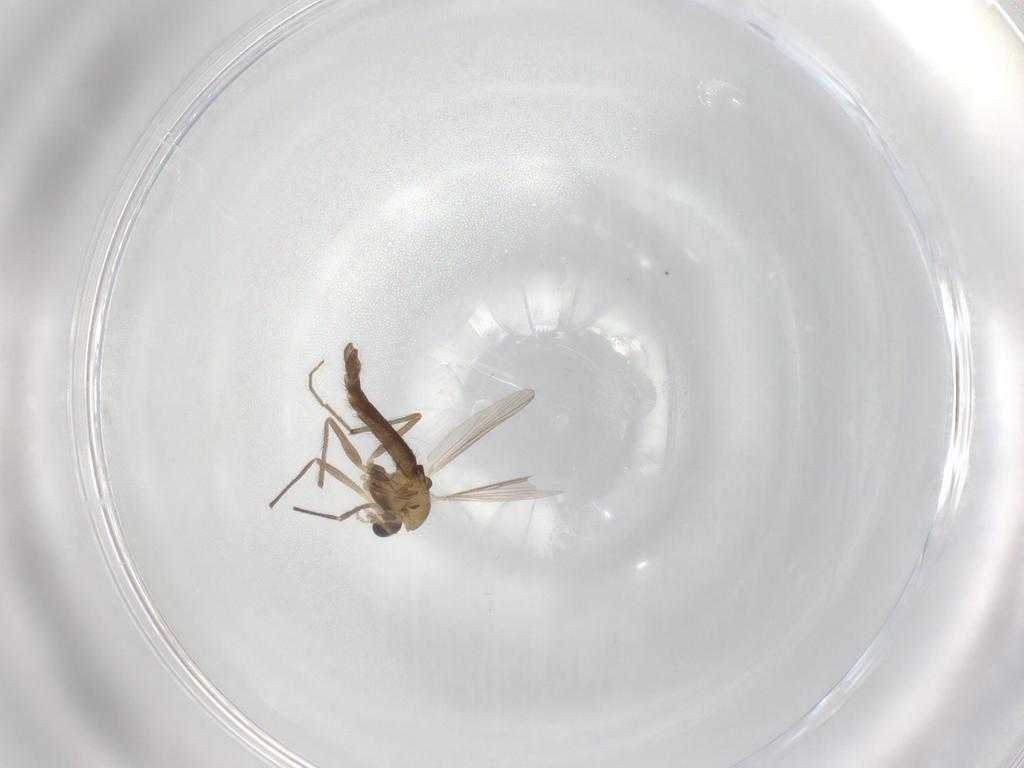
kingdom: Animalia
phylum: Arthropoda
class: Insecta
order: Diptera
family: Chironomidae
